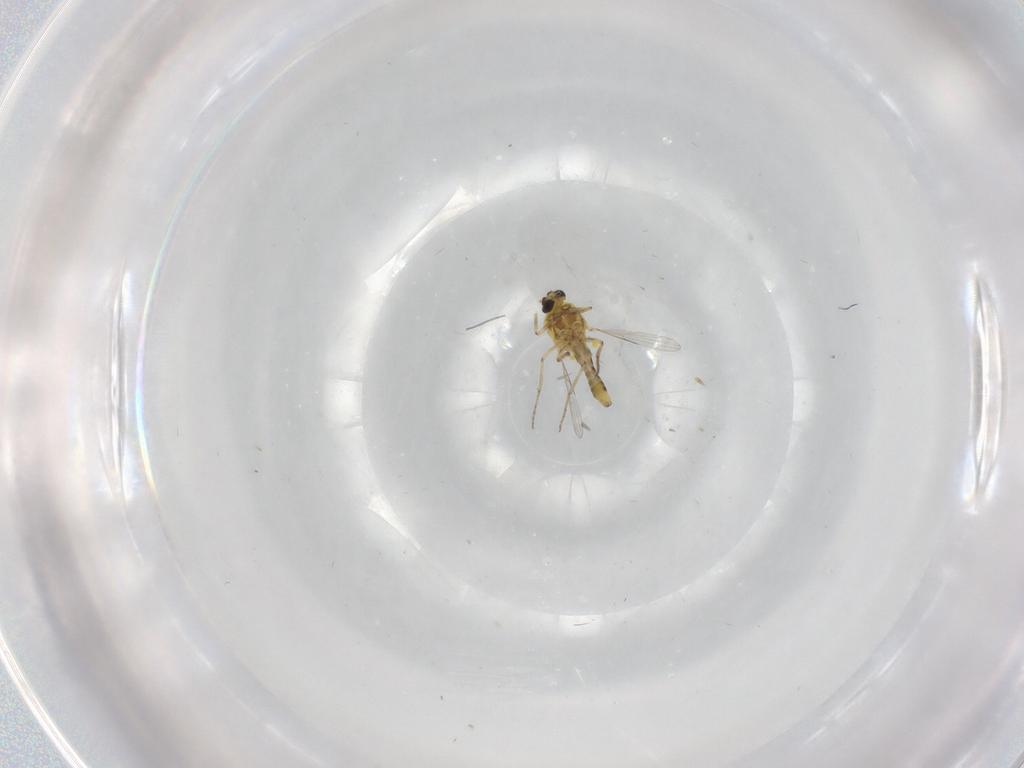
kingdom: Animalia
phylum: Arthropoda
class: Insecta
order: Diptera
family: Ceratopogonidae
